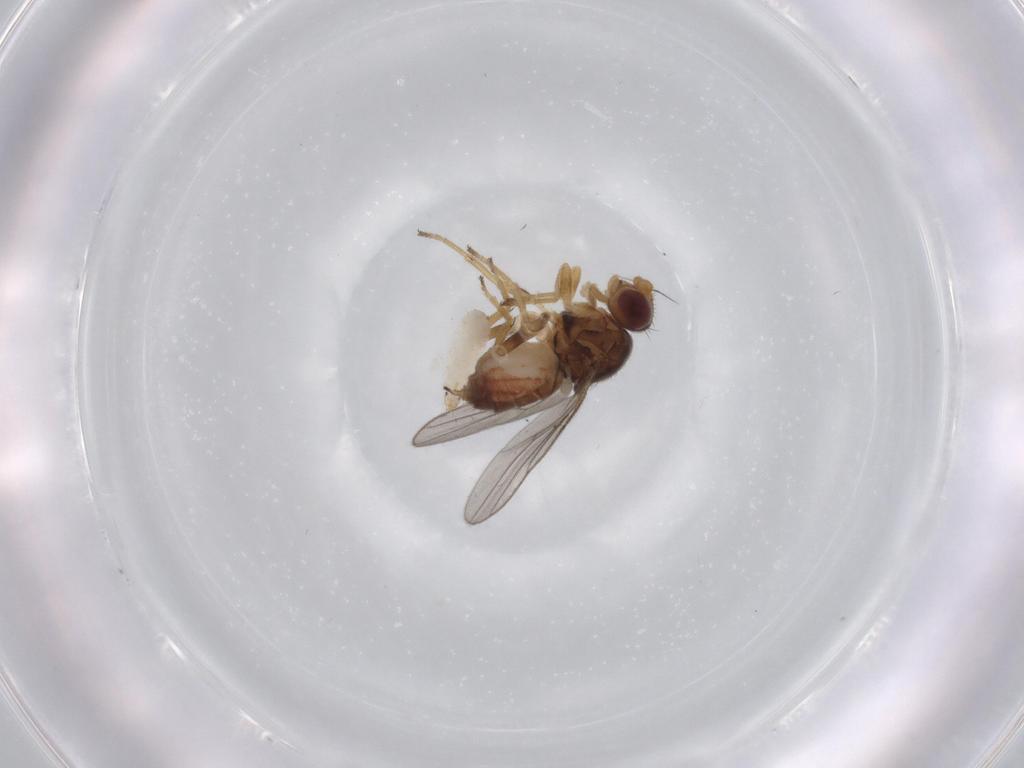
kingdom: Animalia
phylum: Arthropoda
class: Insecta
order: Diptera
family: Chloropidae
